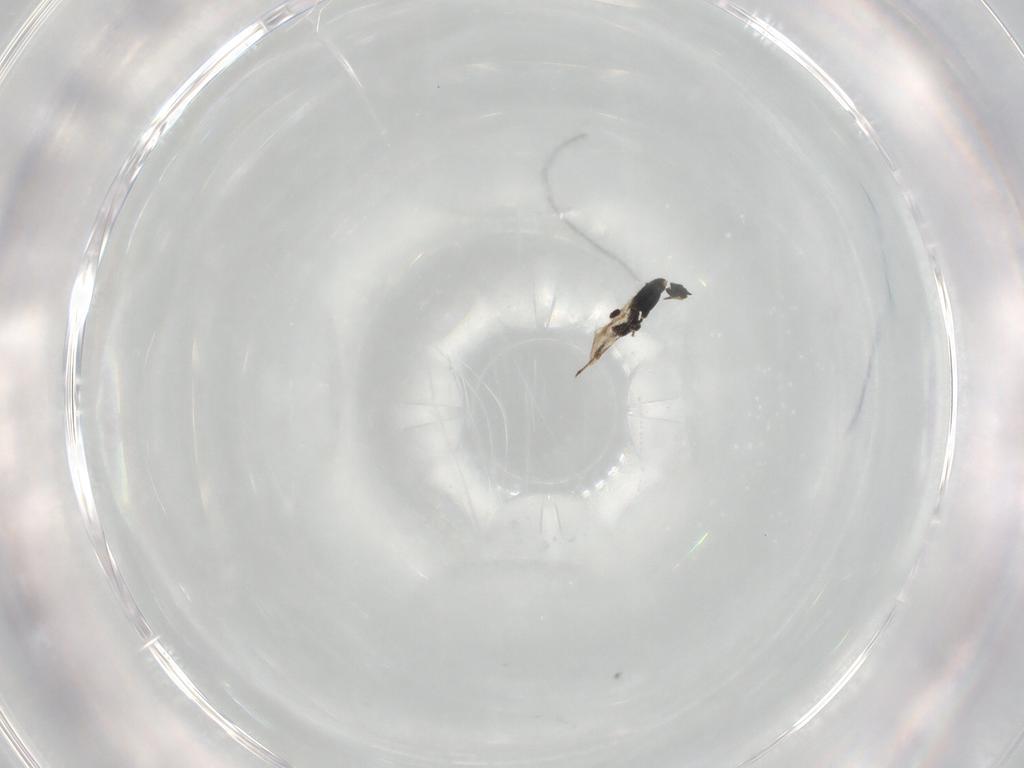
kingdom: Animalia
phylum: Arthropoda
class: Insecta
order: Hymenoptera
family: Pteromalidae
